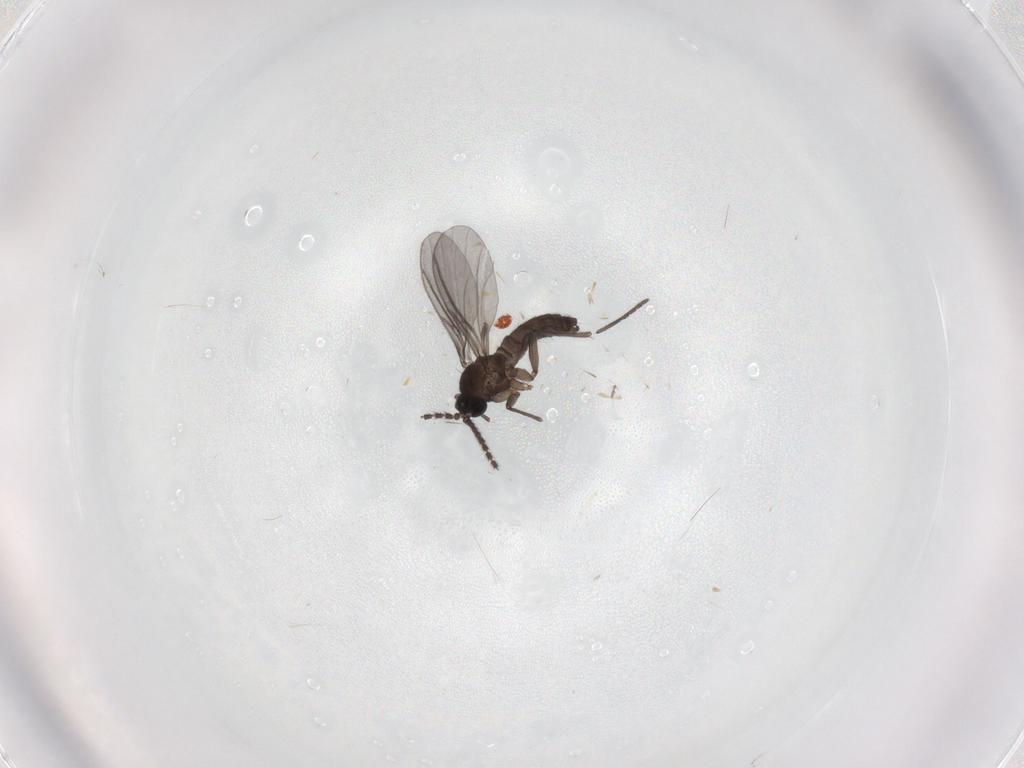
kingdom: Animalia
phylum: Arthropoda
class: Insecta
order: Diptera
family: Chironomidae
